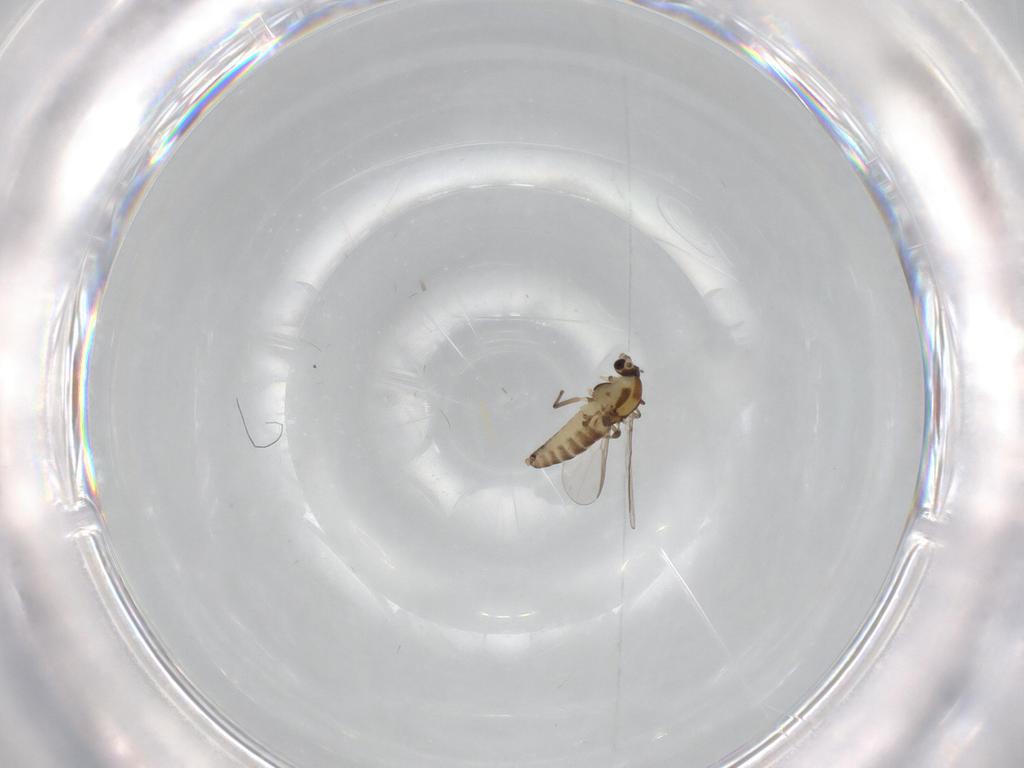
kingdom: Animalia
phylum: Arthropoda
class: Insecta
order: Diptera
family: Chironomidae
